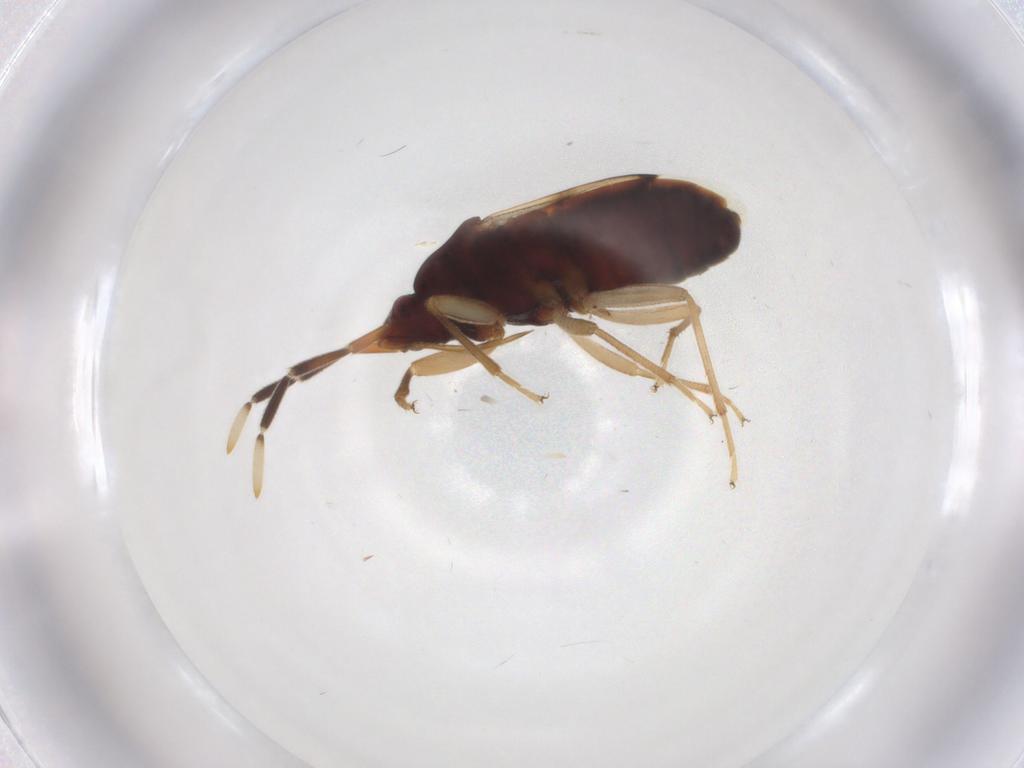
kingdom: Animalia
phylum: Arthropoda
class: Insecta
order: Hemiptera
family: Rhyparochromidae
